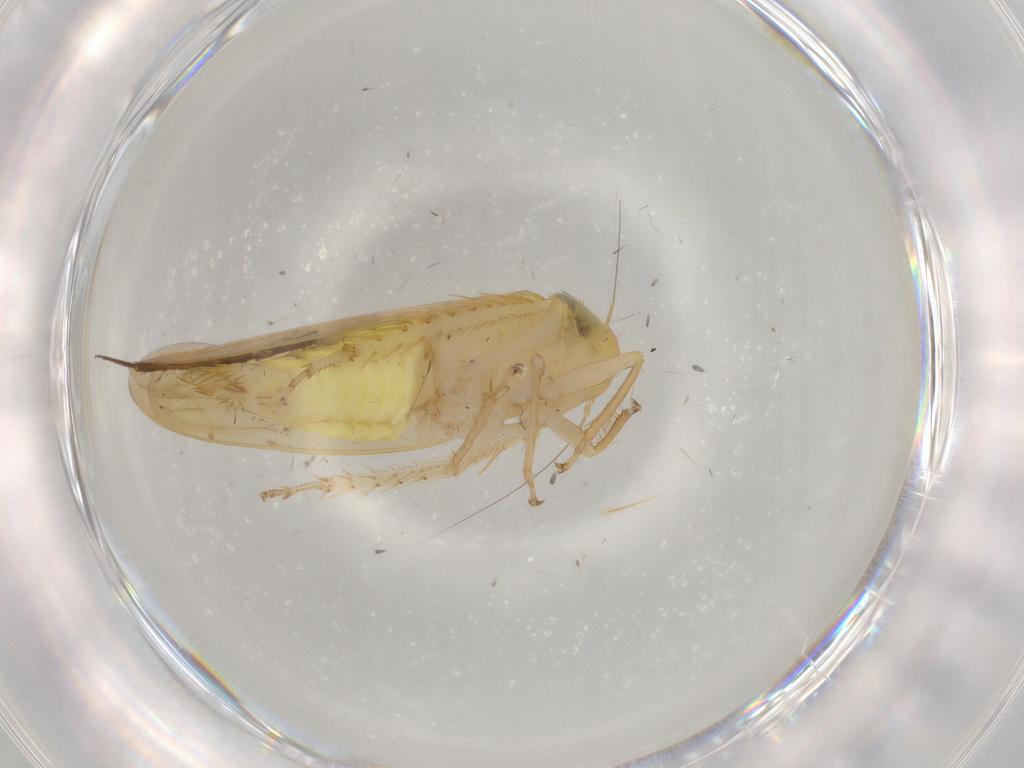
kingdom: Animalia
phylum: Arthropoda
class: Insecta
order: Hemiptera
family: Cicadellidae
